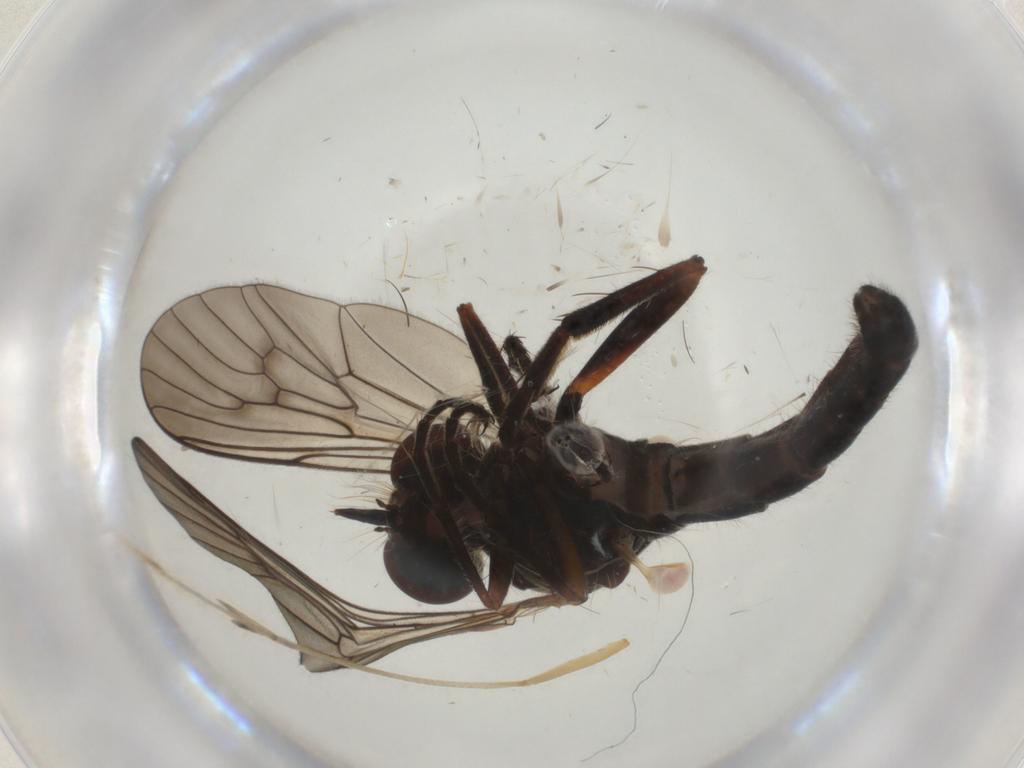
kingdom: Animalia
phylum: Arthropoda
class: Insecta
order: Diptera
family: Asilidae
